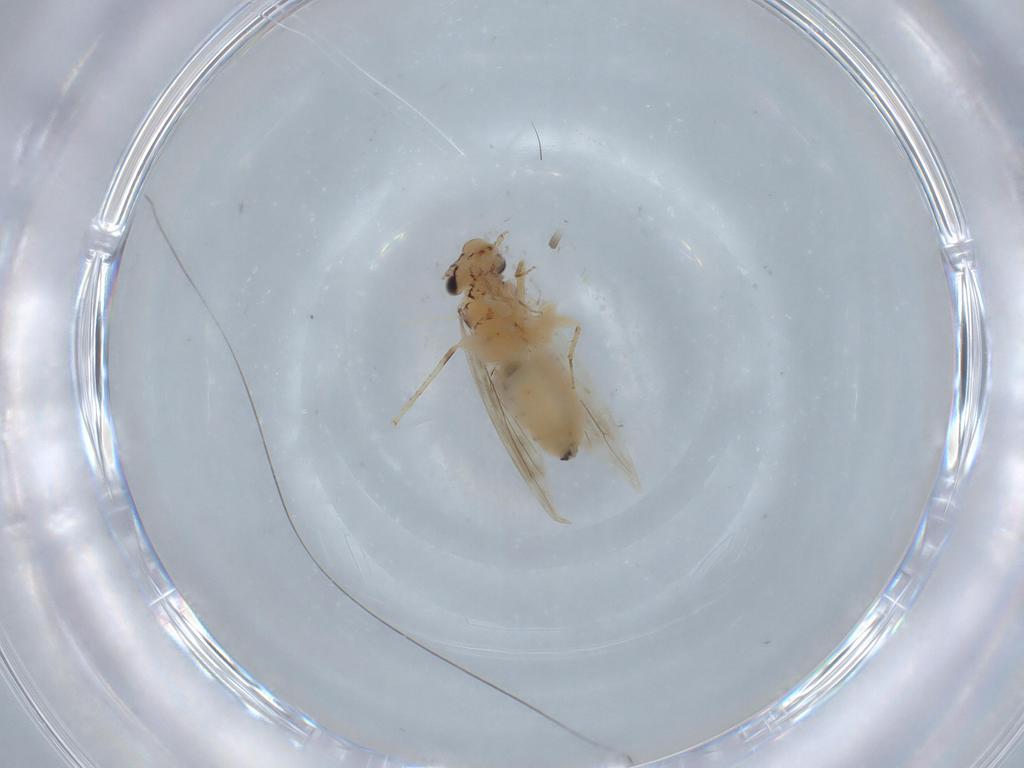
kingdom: Animalia
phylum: Arthropoda
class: Insecta
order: Psocodea
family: Lepidopsocidae
